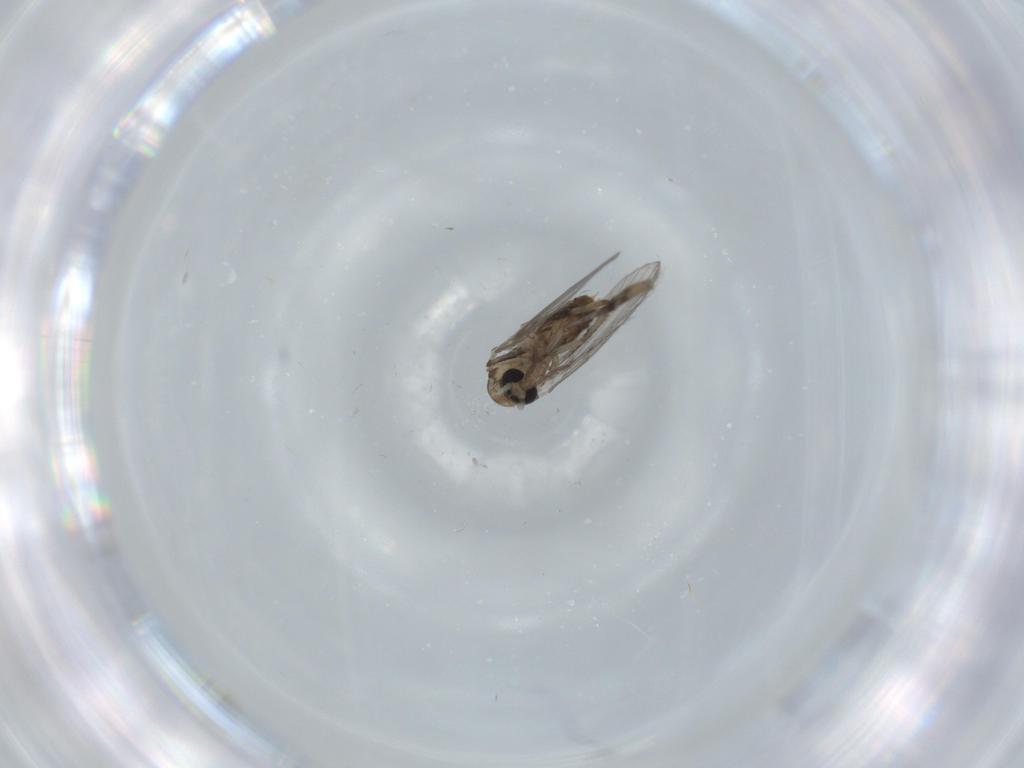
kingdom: Animalia
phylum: Arthropoda
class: Insecta
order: Diptera
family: Psychodidae
